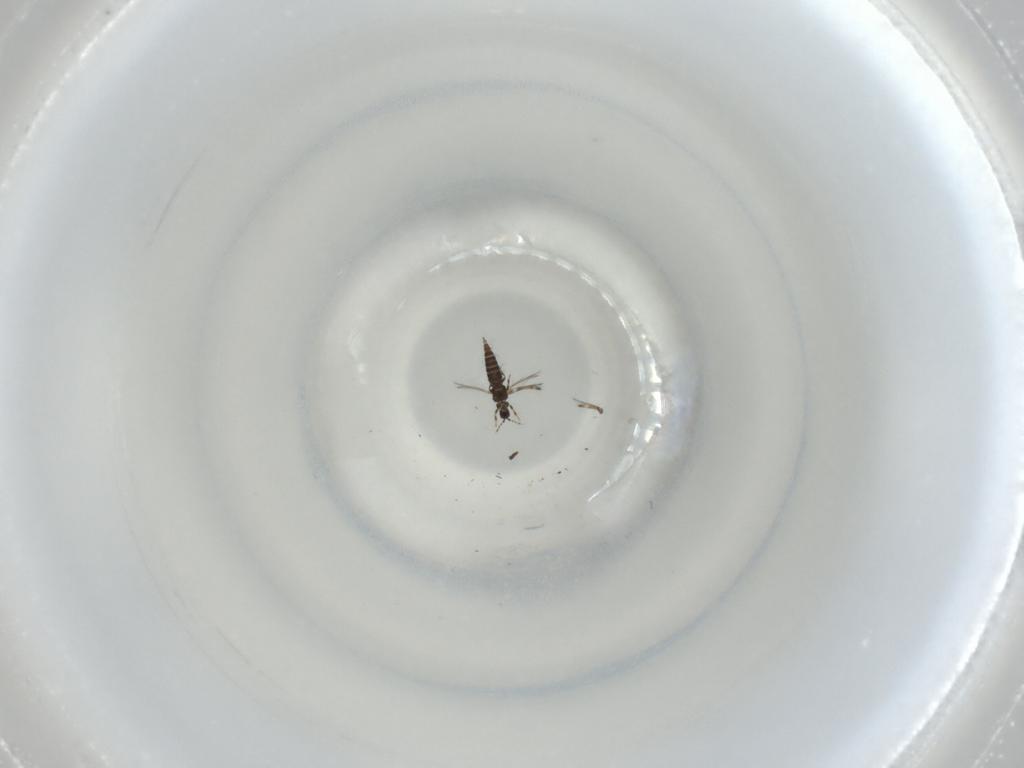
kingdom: Animalia
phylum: Arthropoda
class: Insecta
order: Thysanoptera
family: Thripidae
